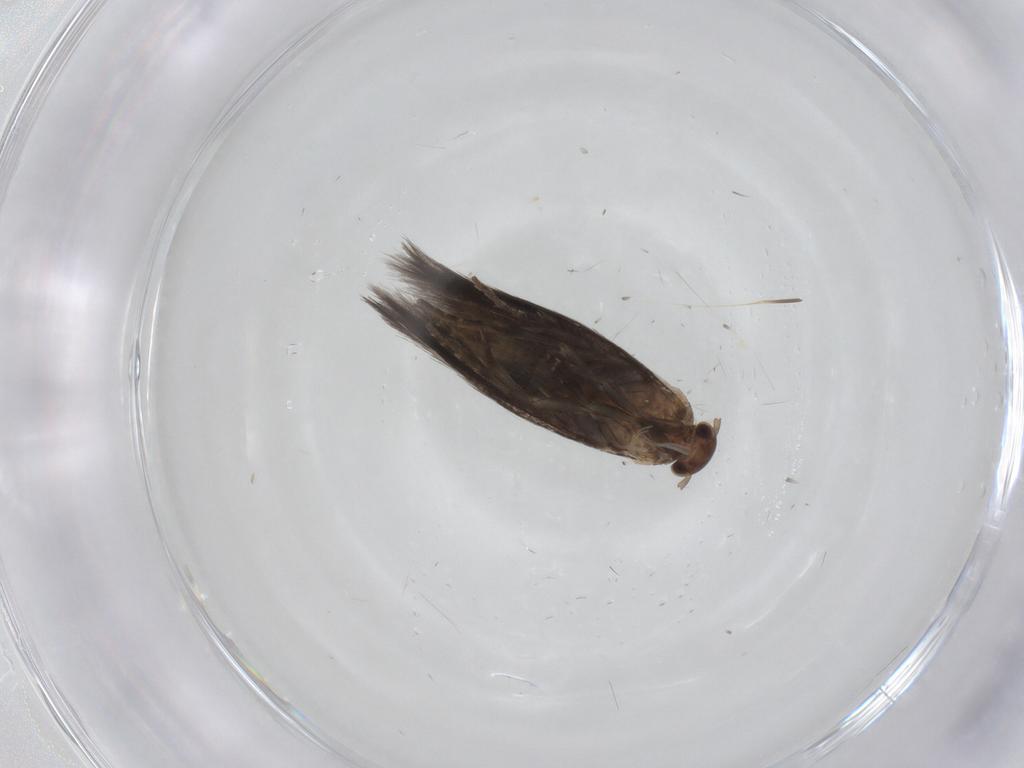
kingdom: Animalia
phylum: Arthropoda
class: Insecta
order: Lepidoptera
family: Elachistidae
